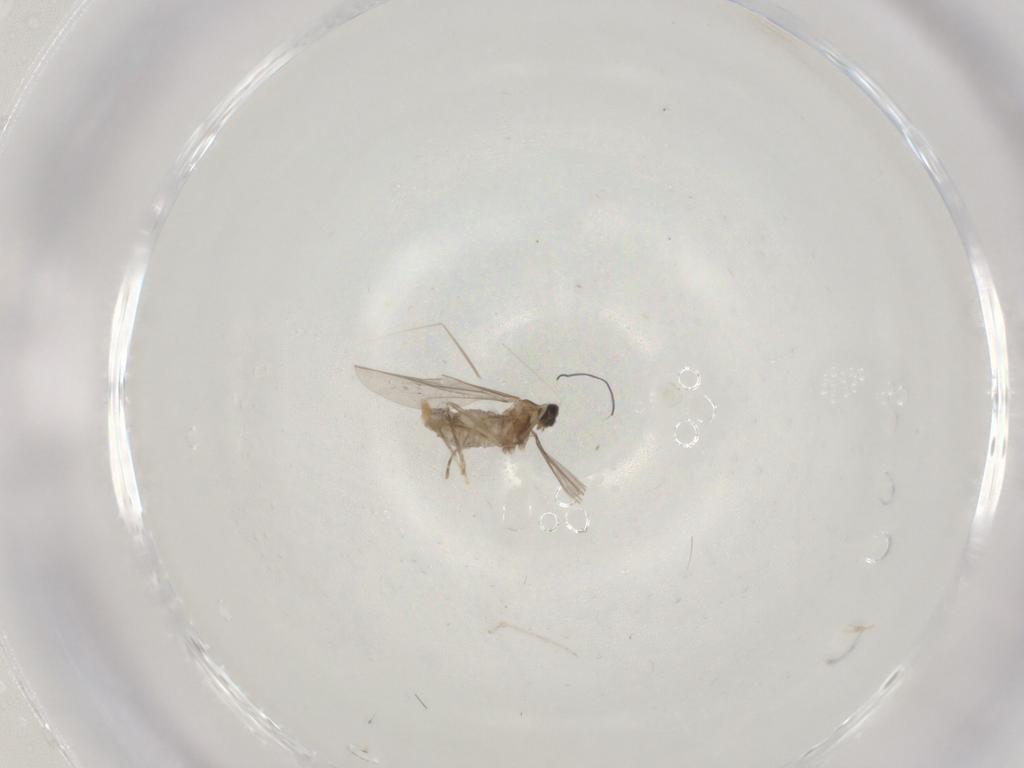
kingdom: Animalia
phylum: Arthropoda
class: Insecta
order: Diptera
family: Cecidomyiidae
